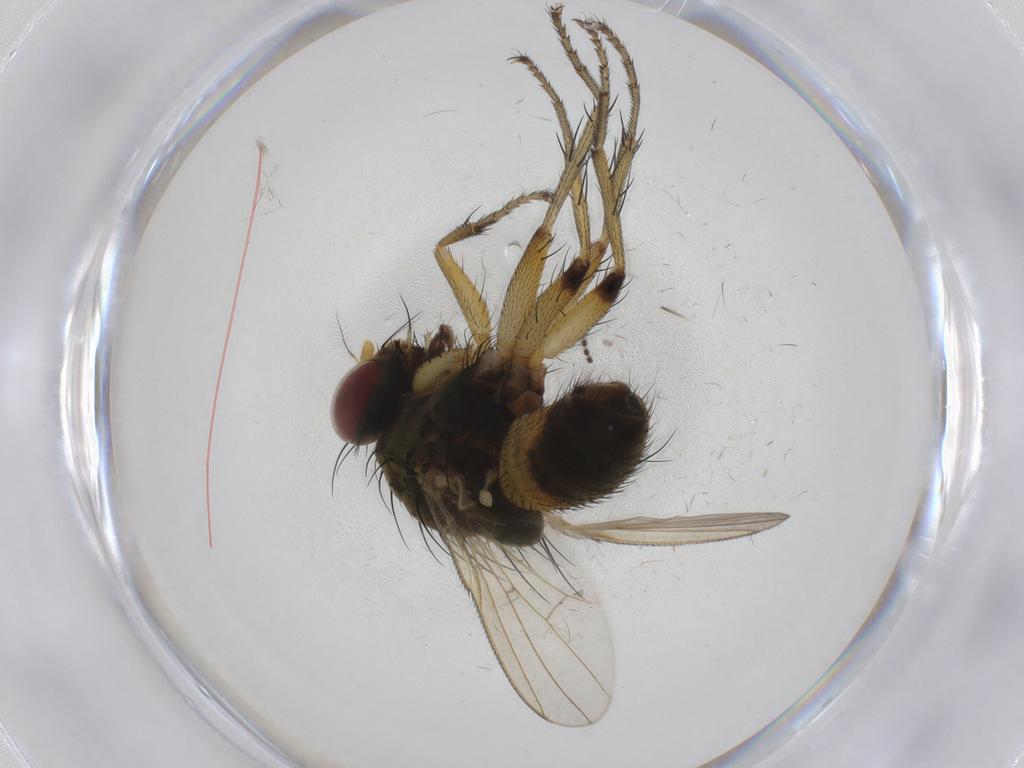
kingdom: Animalia
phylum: Arthropoda
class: Insecta
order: Diptera
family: Muscidae
